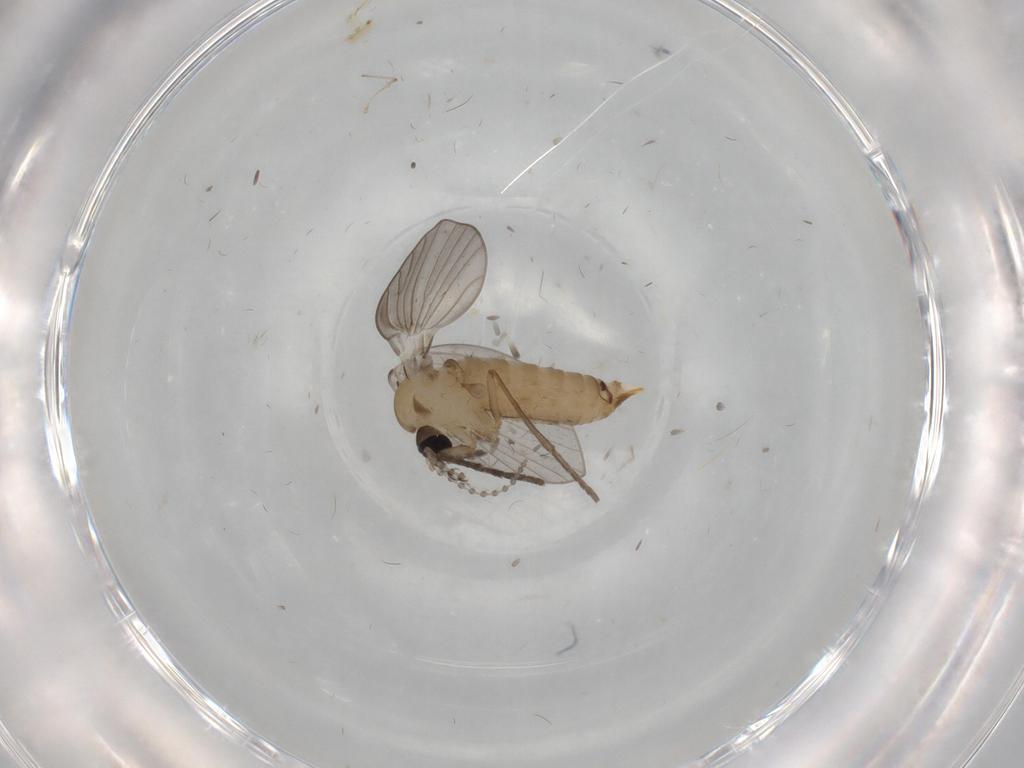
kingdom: Animalia
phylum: Arthropoda
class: Insecta
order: Diptera
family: Psychodidae
